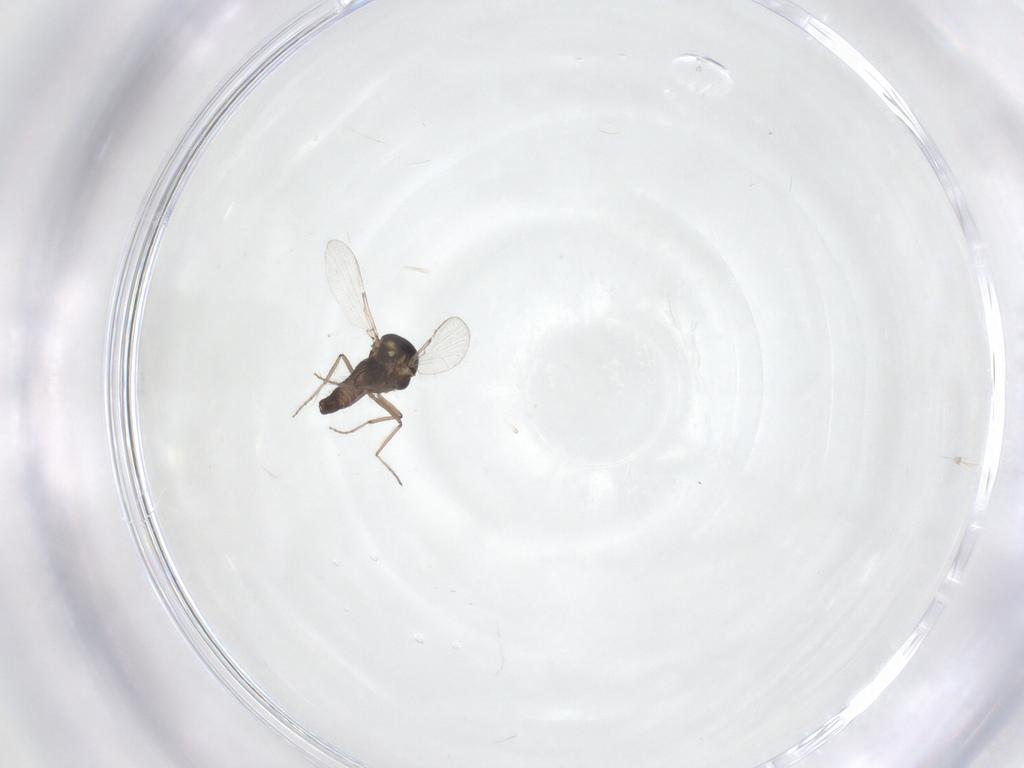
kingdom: Animalia
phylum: Arthropoda
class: Insecta
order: Diptera
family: Ceratopogonidae
